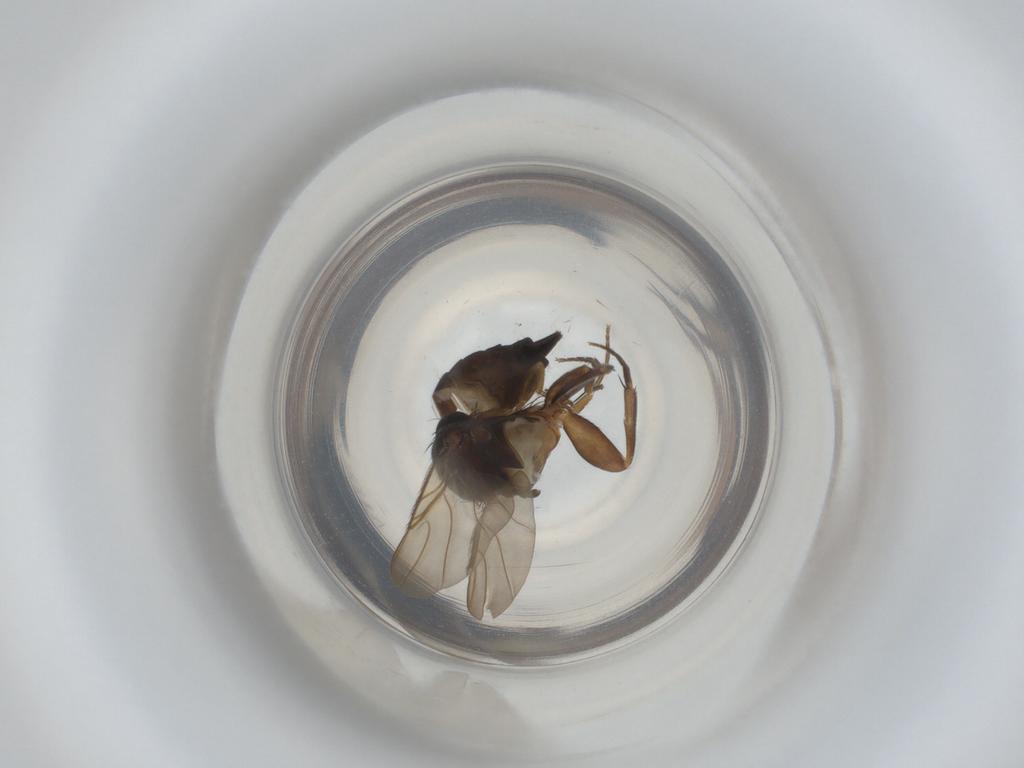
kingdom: Animalia
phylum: Arthropoda
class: Insecta
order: Diptera
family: Phoridae
